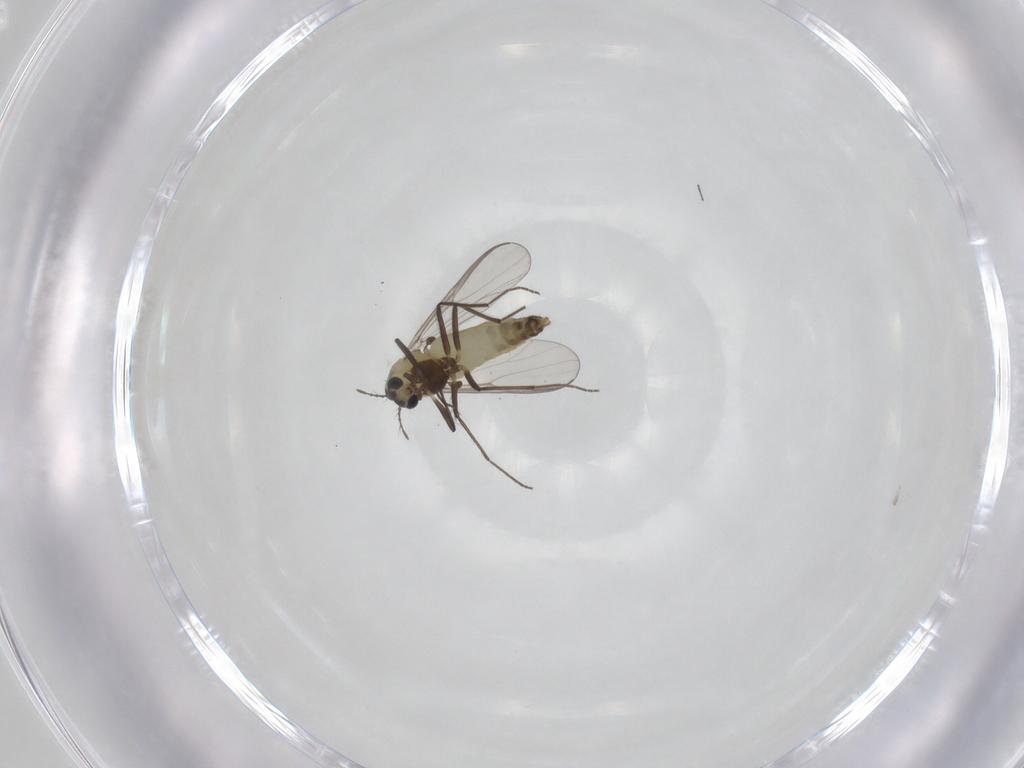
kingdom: Animalia
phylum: Arthropoda
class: Insecta
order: Diptera
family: Chironomidae
